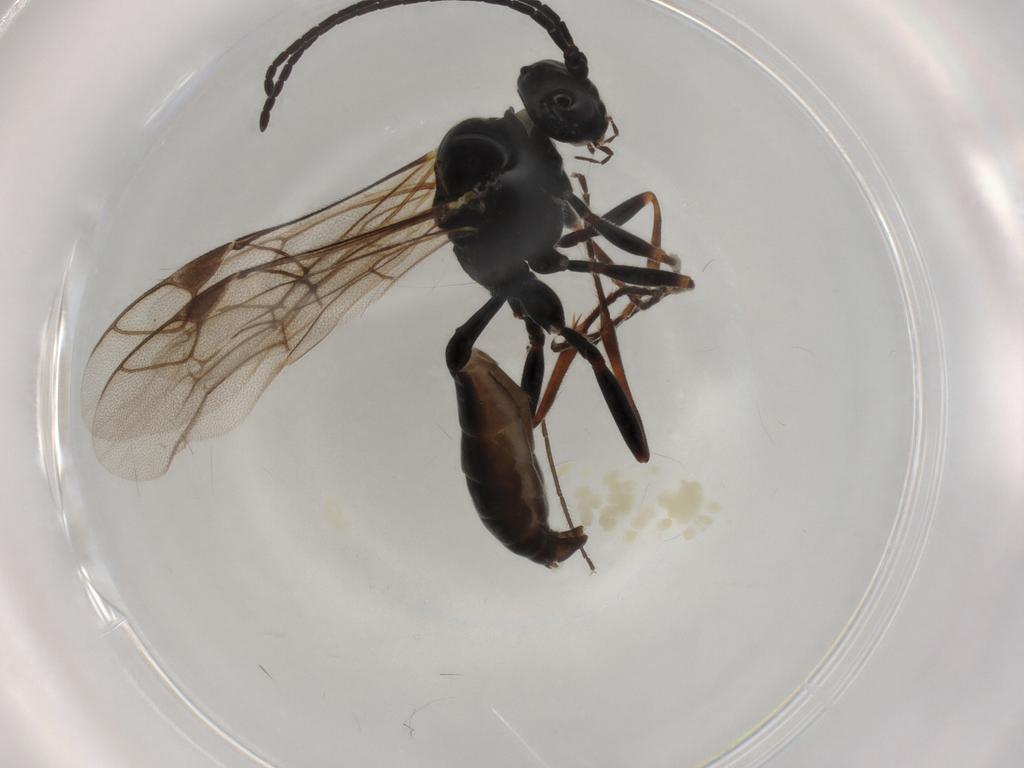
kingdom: Animalia
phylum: Arthropoda
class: Insecta
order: Hymenoptera
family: Ichneumonidae
